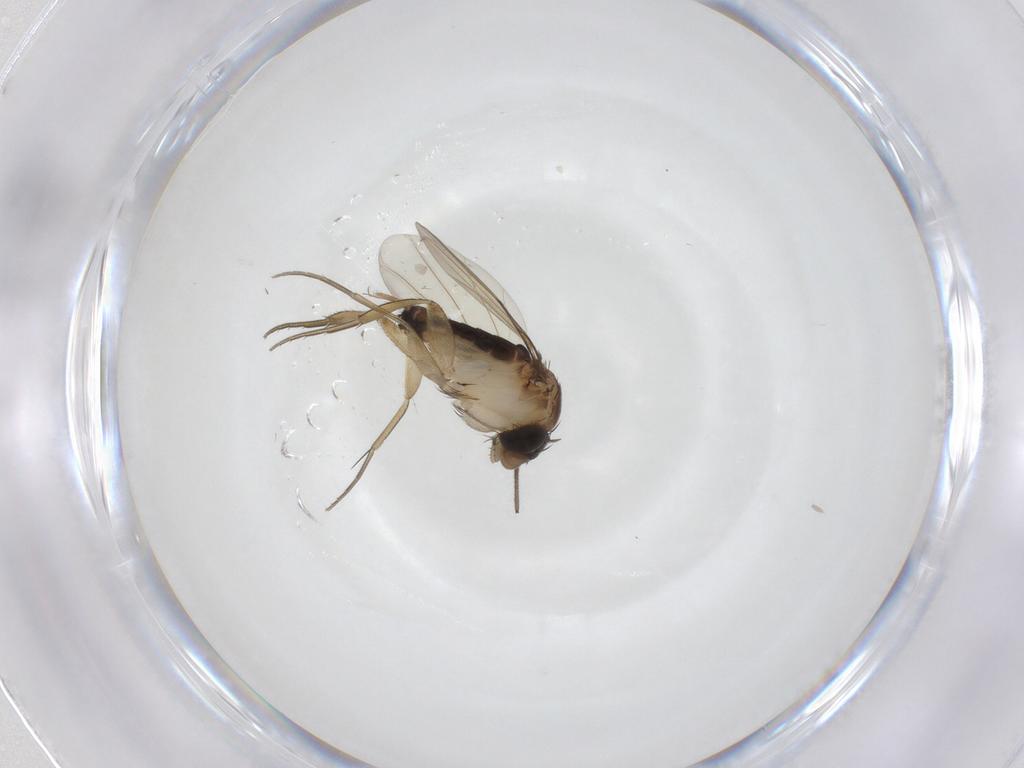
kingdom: Animalia
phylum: Arthropoda
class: Insecta
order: Diptera
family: Phoridae
